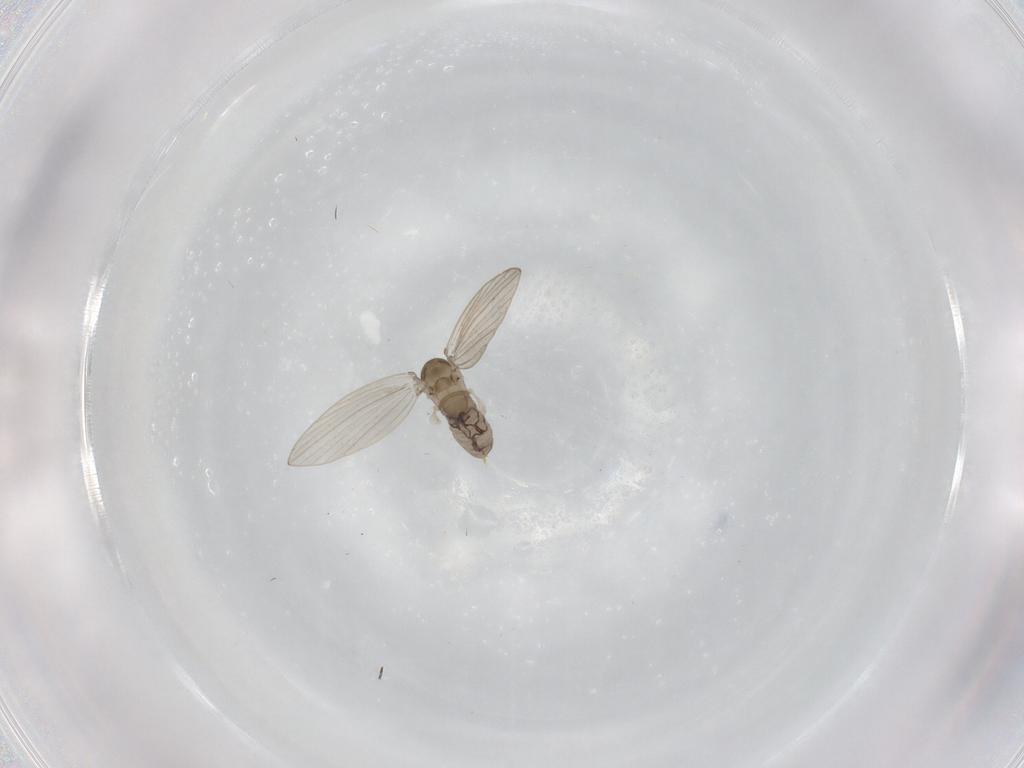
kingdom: Animalia
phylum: Arthropoda
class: Insecta
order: Diptera
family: Psychodidae
